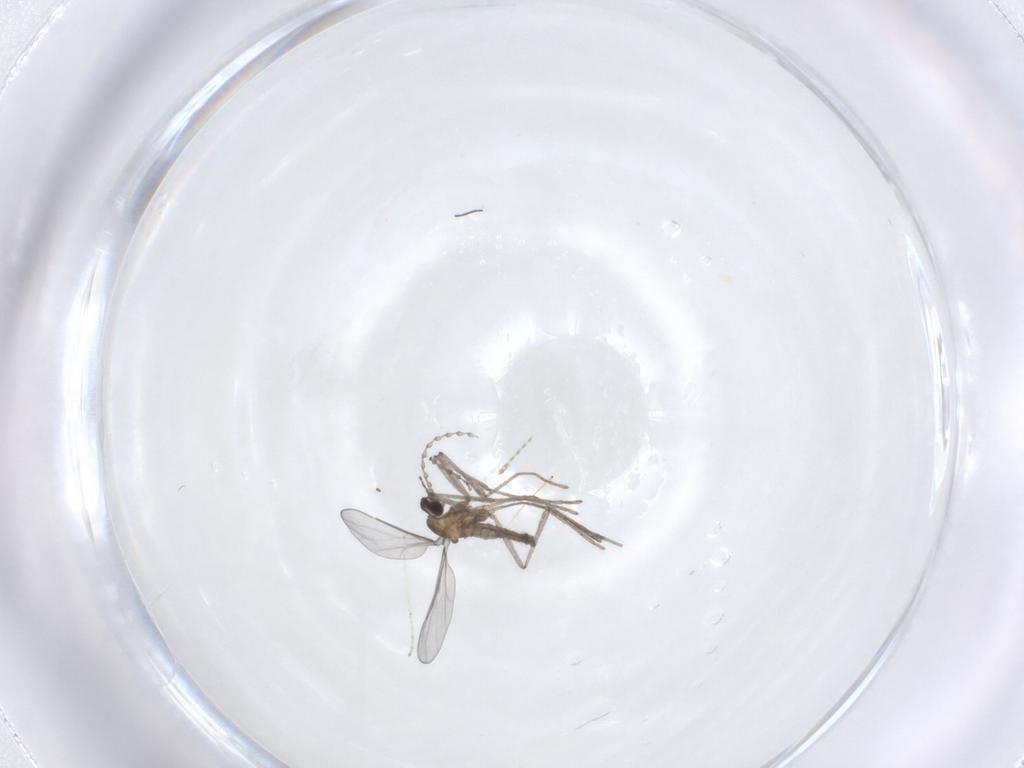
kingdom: Animalia
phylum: Arthropoda
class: Insecta
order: Diptera
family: Cecidomyiidae
